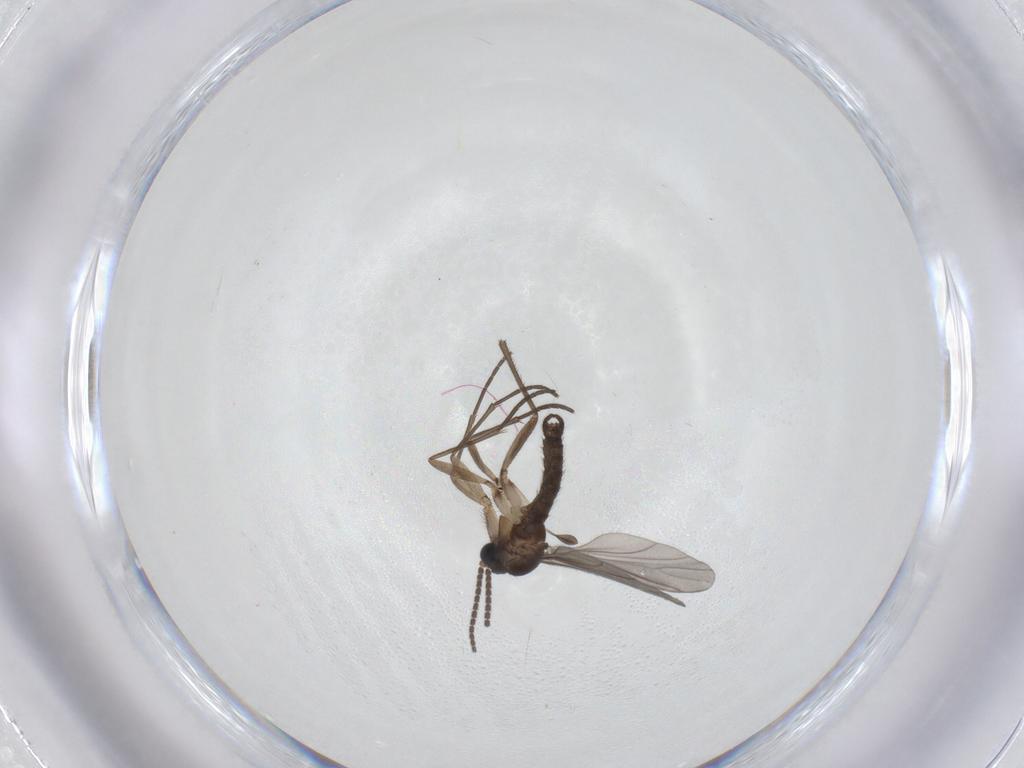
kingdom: Animalia
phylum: Arthropoda
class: Insecta
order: Diptera
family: Sciaridae
